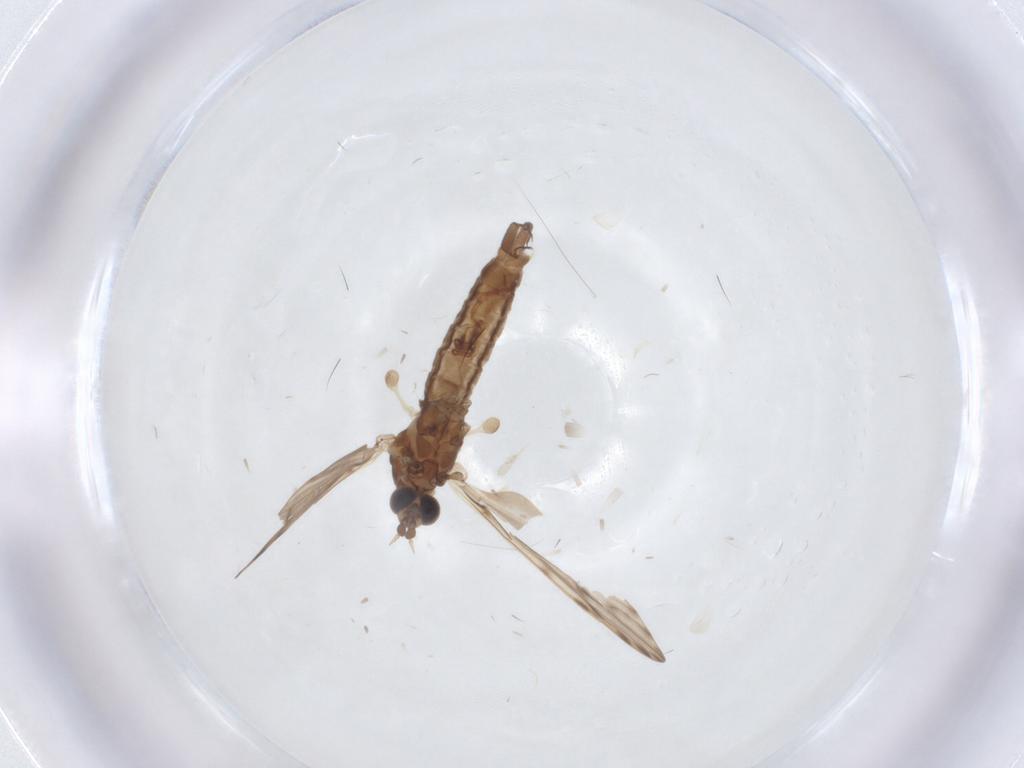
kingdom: Animalia
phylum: Arthropoda
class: Insecta
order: Diptera
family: Limoniidae
